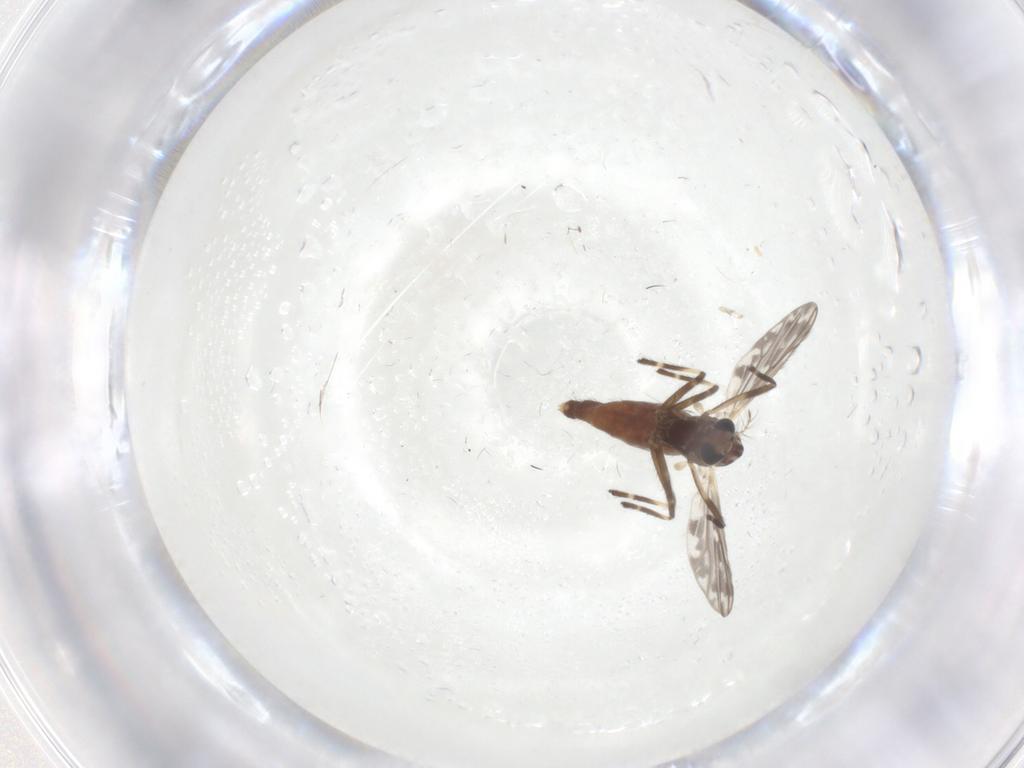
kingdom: Animalia
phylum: Arthropoda
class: Insecta
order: Diptera
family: Chironomidae
